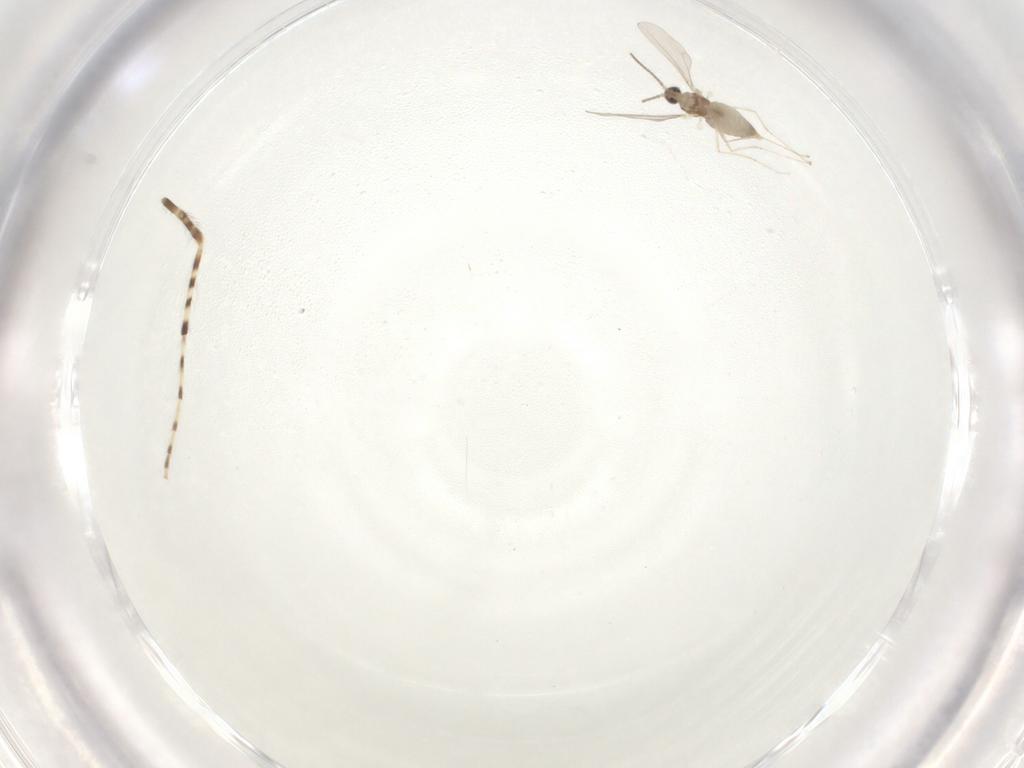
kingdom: Animalia
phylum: Arthropoda
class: Insecta
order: Diptera
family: Cecidomyiidae
